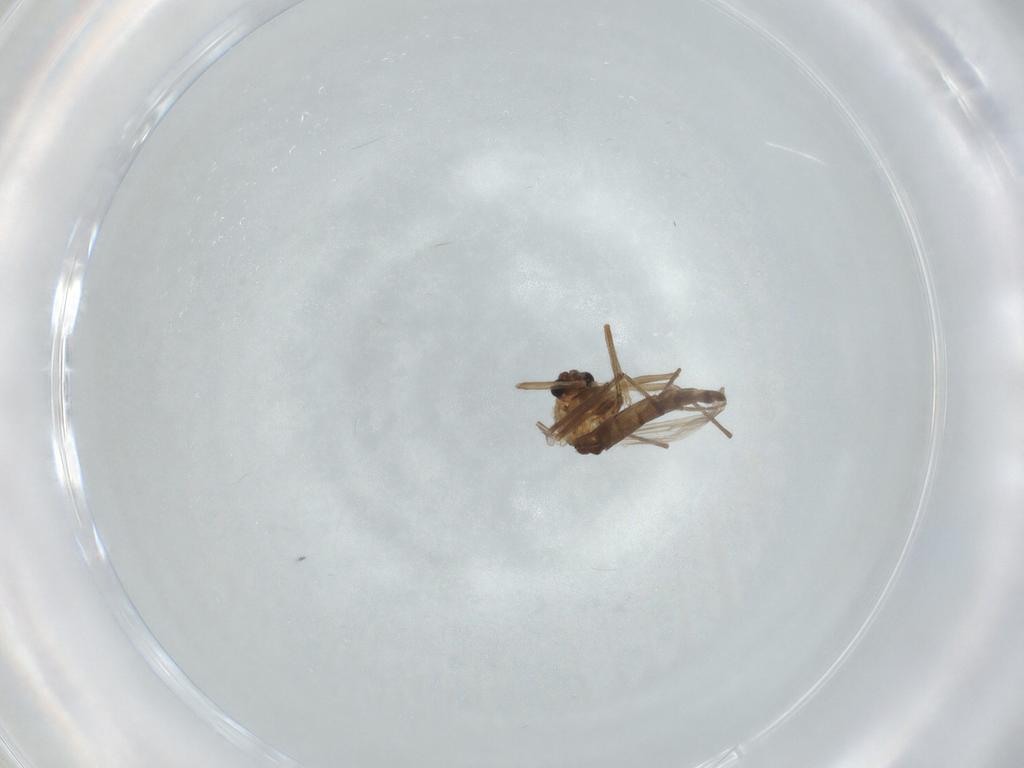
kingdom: Animalia
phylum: Arthropoda
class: Insecta
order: Diptera
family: Chironomidae
